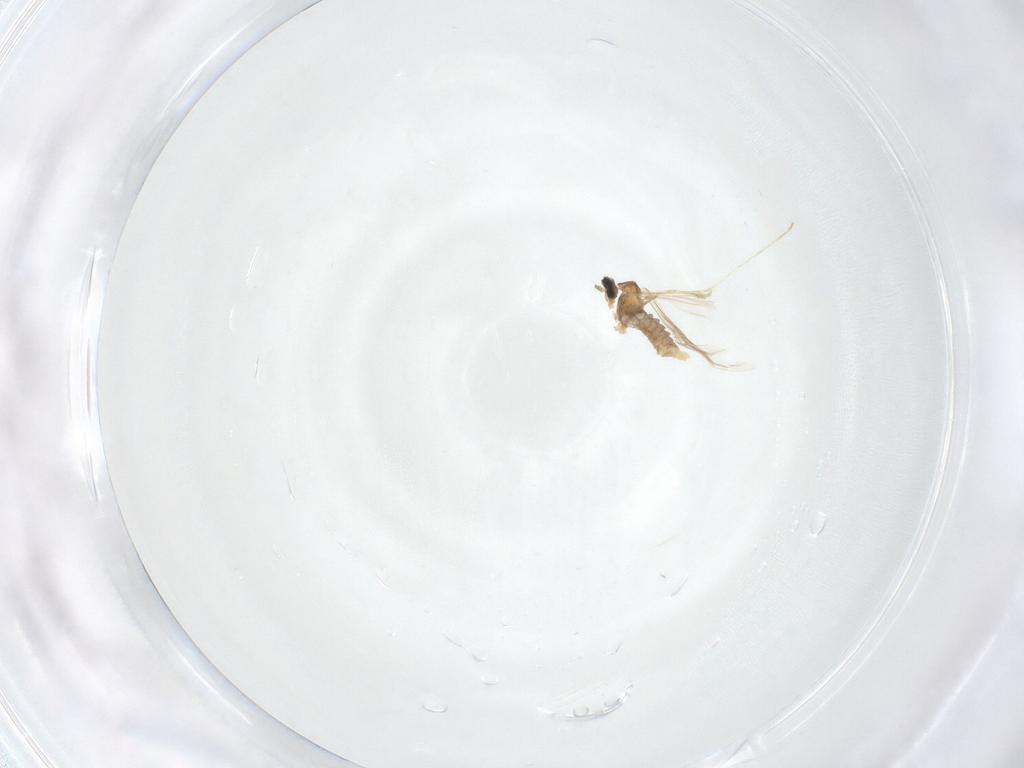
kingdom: Animalia
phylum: Arthropoda
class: Insecta
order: Diptera
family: Cecidomyiidae
